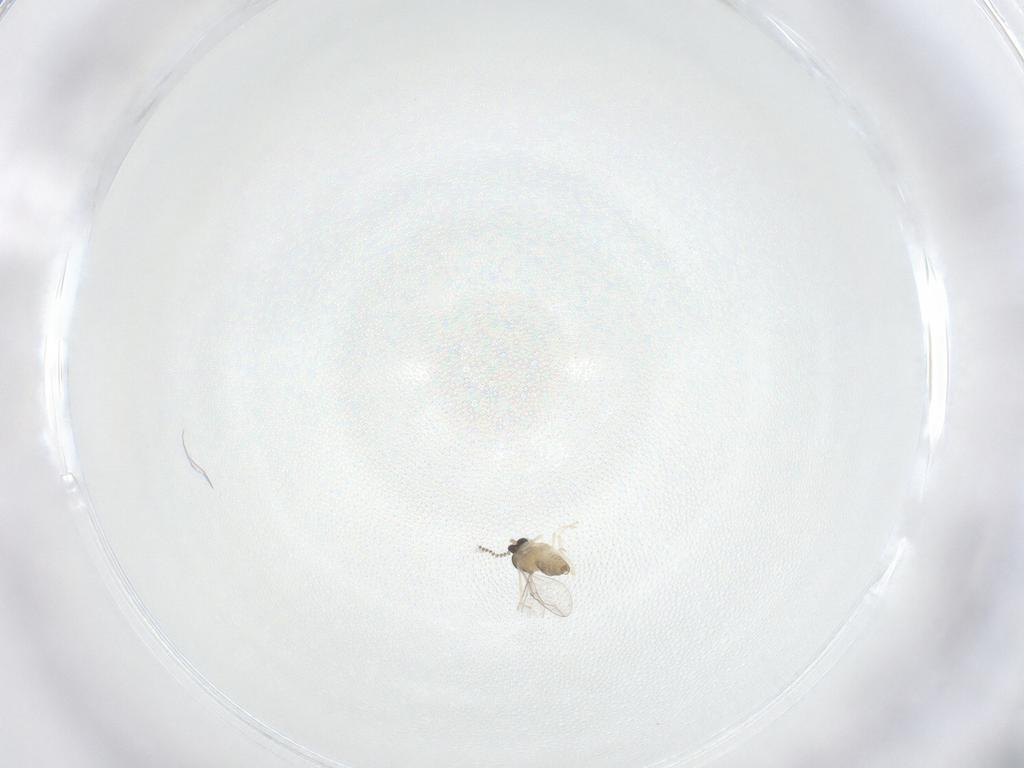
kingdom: Animalia
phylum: Arthropoda
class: Insecta
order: Diptera
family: Cecidomyiidae
